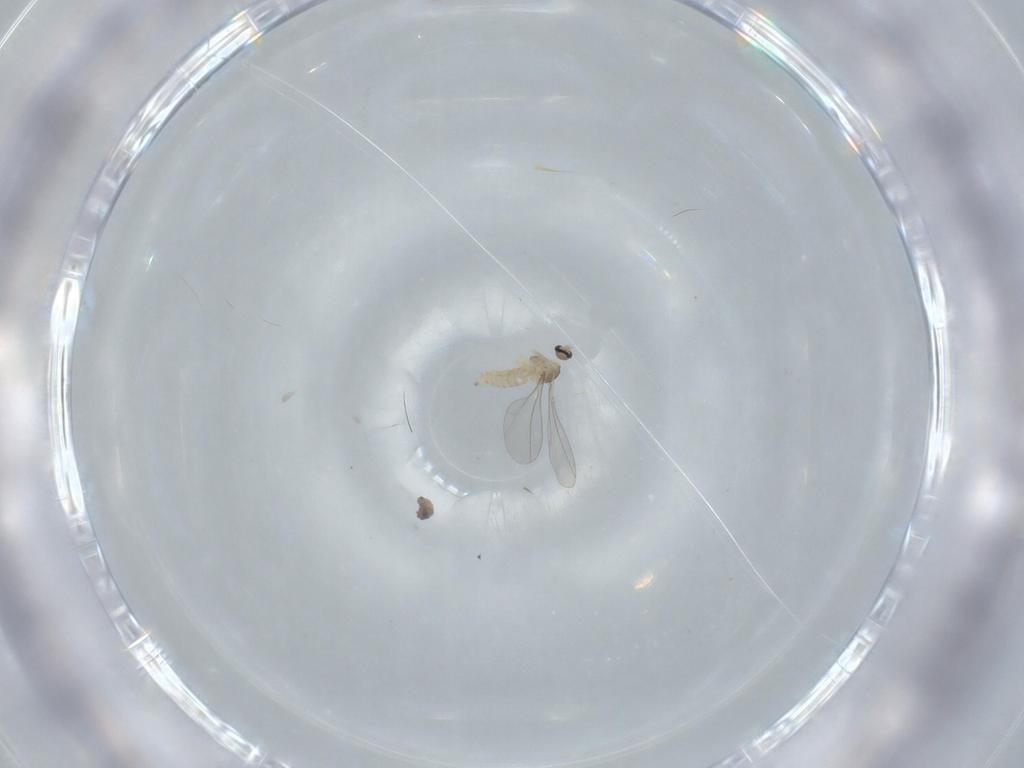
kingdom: Animalia
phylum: Arthropoda
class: Insecta
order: Diptera
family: Cecidomyiidae
